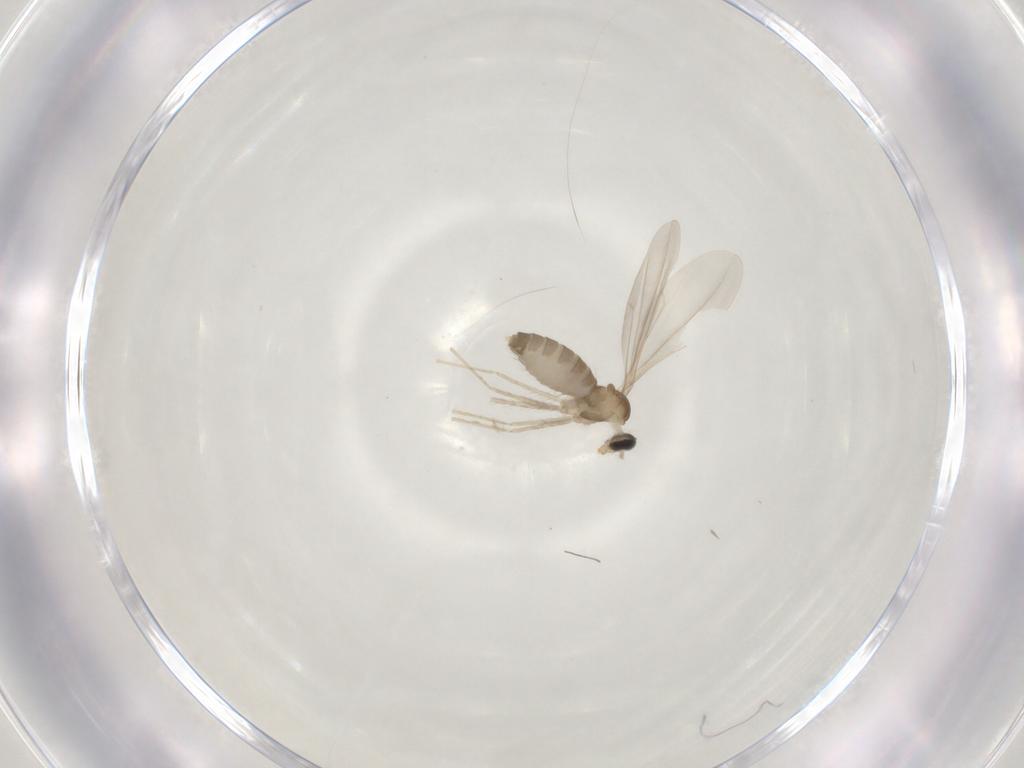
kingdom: Animalia
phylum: Arthropoda
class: Insecta
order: Diptera
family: Cecidomyiidae
